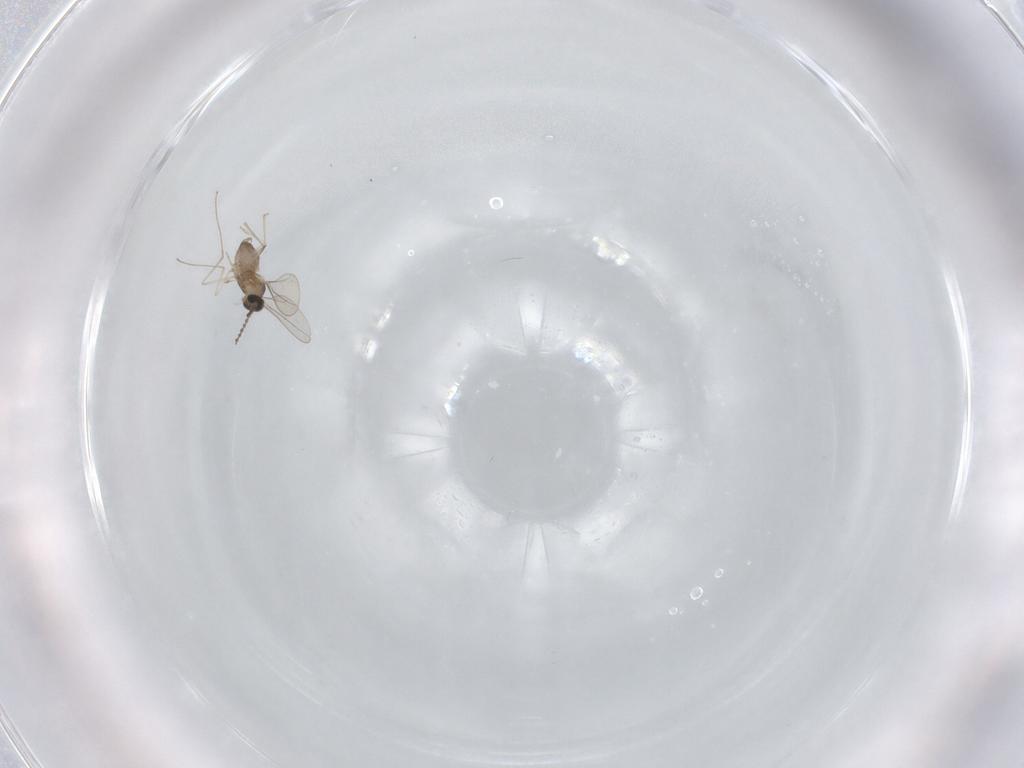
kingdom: Animalia
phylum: Arthropoda
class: Insecta
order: Diptera
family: Cecidomyiidae
